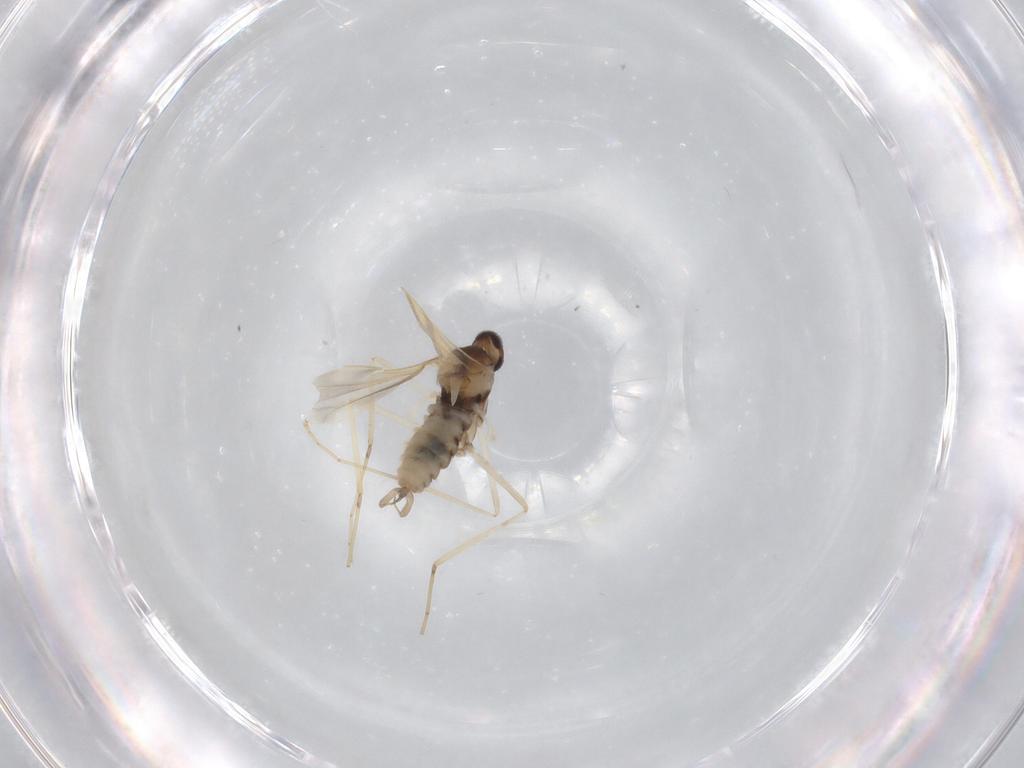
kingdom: Animalia
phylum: Arthropoda
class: Insecta
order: Diptera
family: Cecidomyiidae
